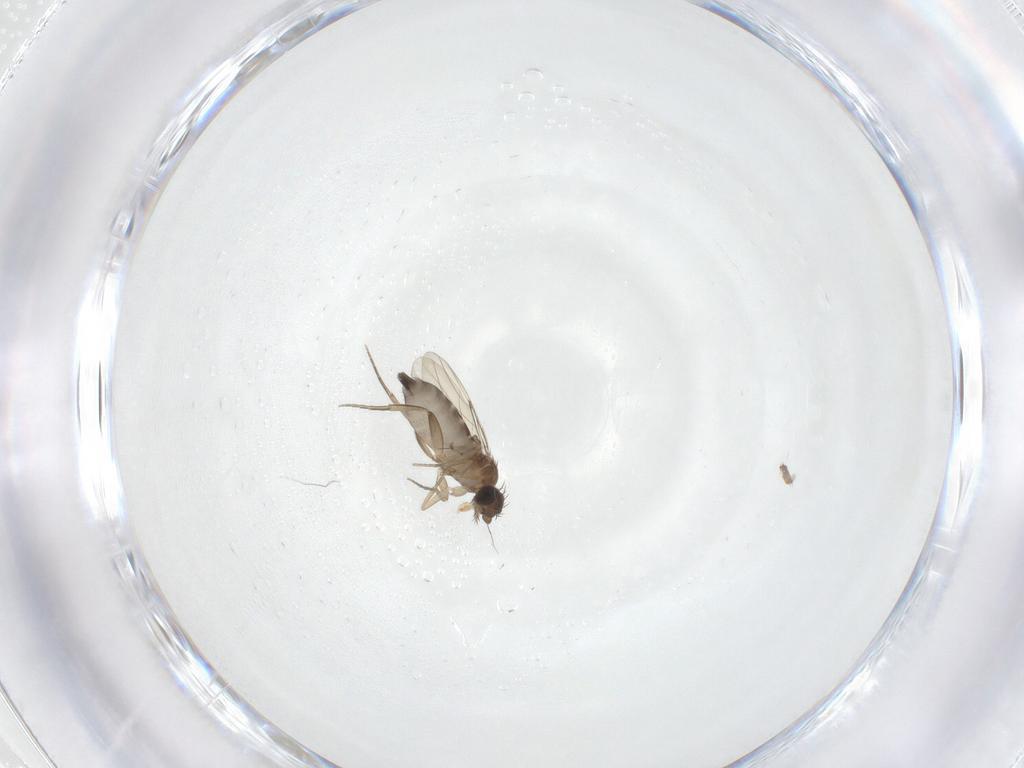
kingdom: Animalia
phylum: Arthropoda
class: Insecta
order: Diptera
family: Phoridae
